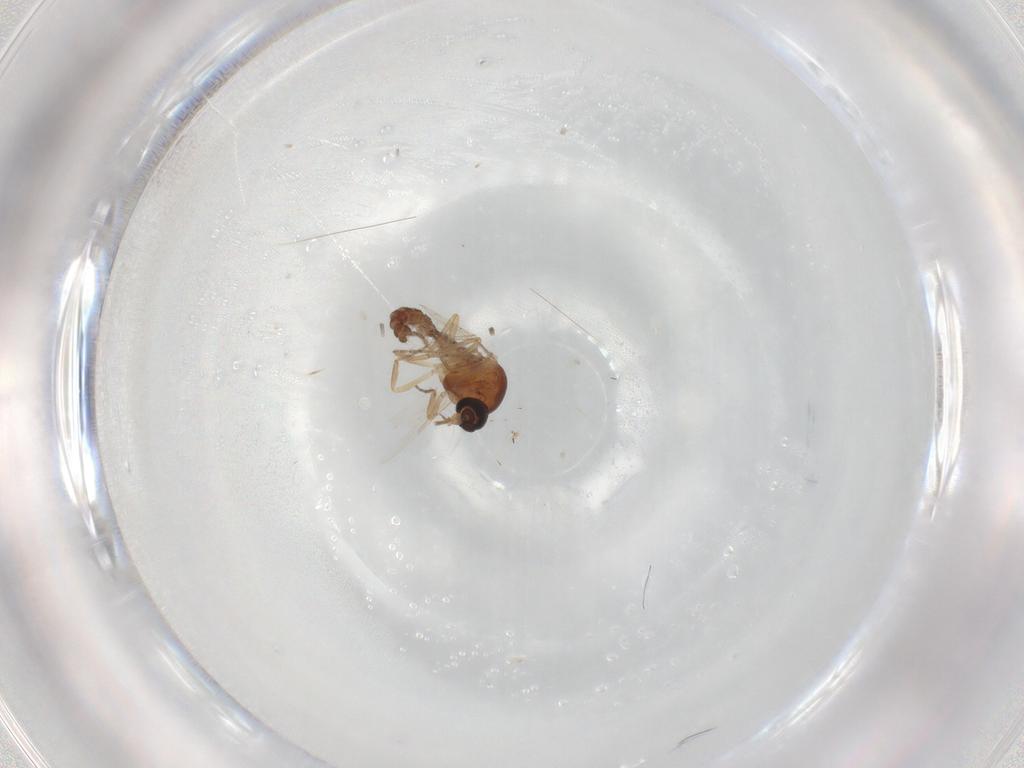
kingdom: Animalia
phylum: Arthropoda
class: Insecta
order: Diptera
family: Ceratopogonidae
